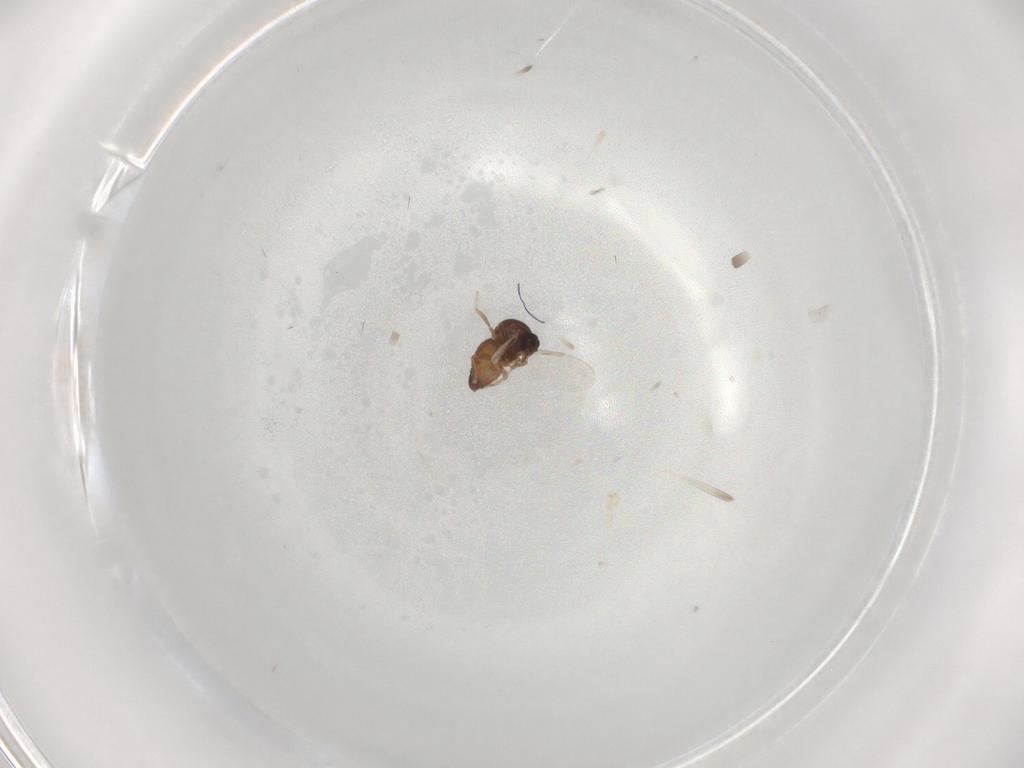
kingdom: Animalia
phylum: Arthropoda
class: Insecta
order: Diptera
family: Ceratopogonidae
